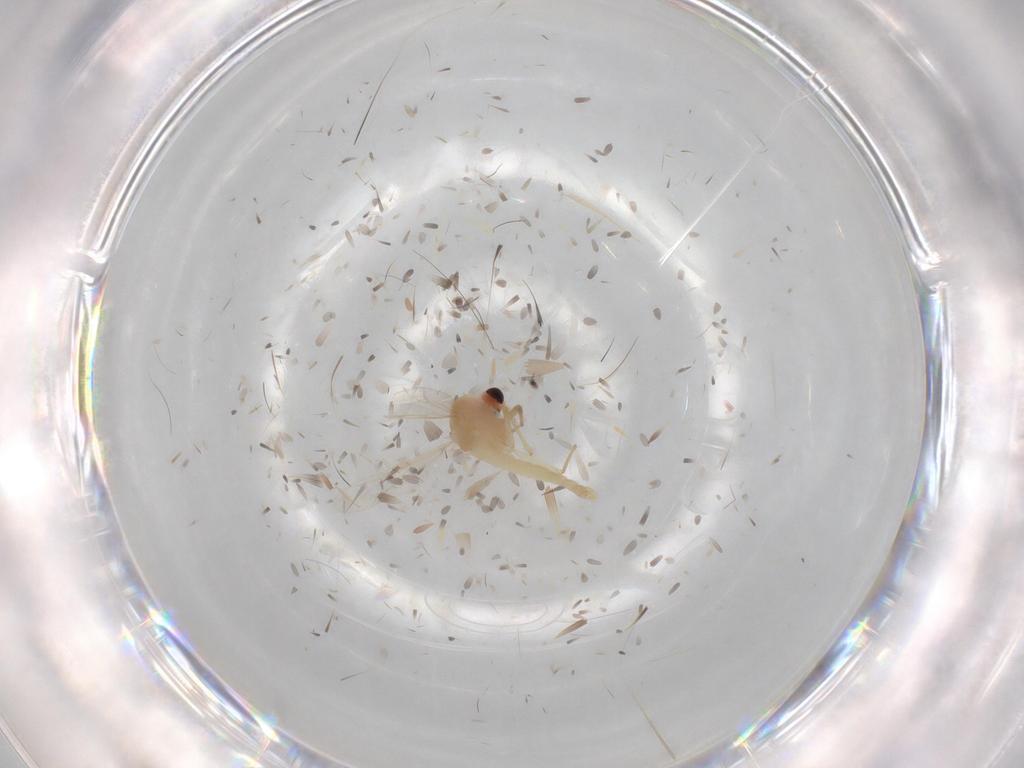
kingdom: Animalia
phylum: Arthropoda
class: Insecta
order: Diptera
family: Chironomidae
